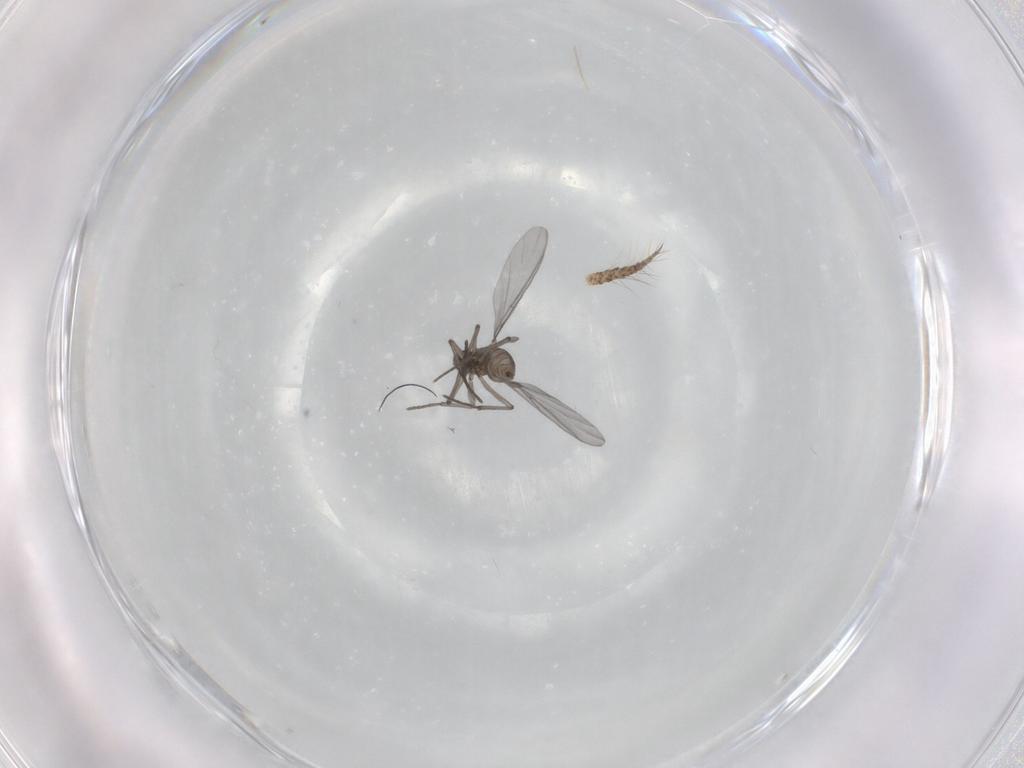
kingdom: Animalia
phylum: Arthropoda
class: Insecta
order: Diptera
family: Sciaridae
